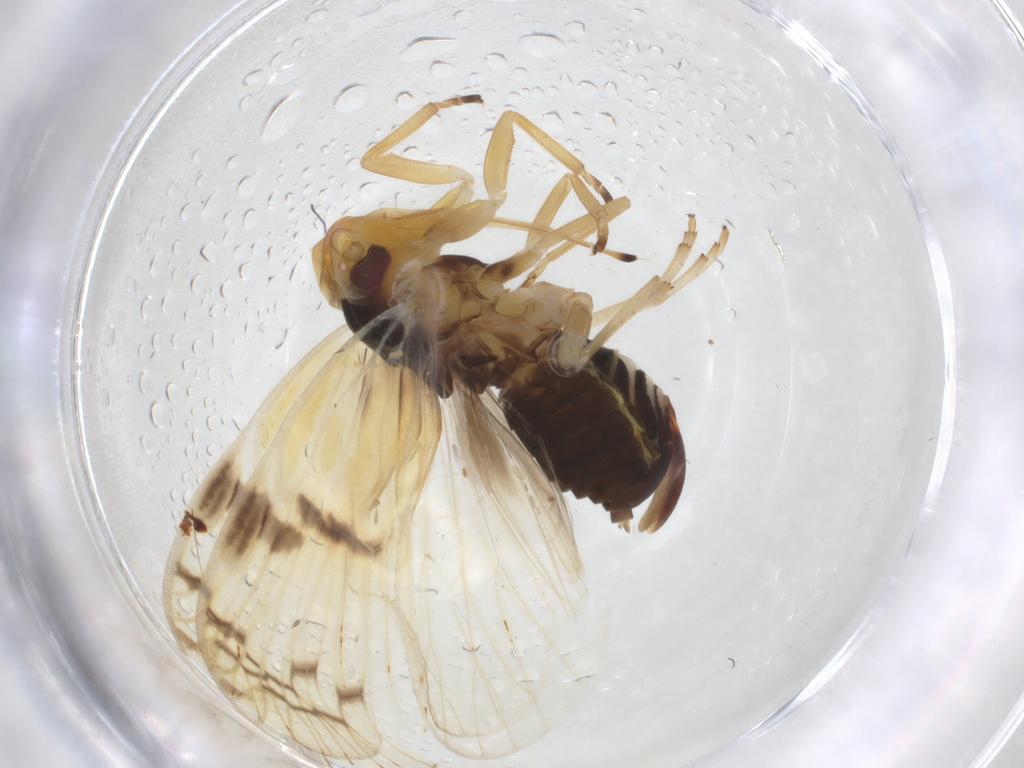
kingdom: Animalia
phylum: Arthropoda
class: Insecta
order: Hemiptera
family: Cixiidae
